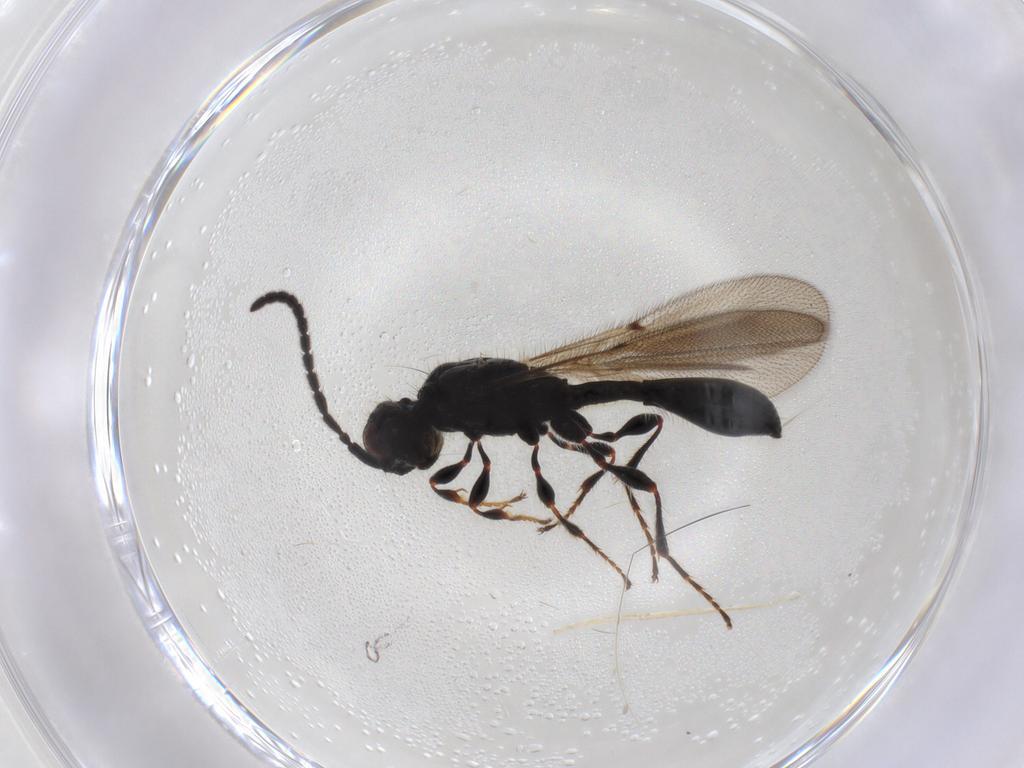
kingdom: Animalia
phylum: Arthropoda
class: Insecta
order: Hymenoptera
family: Diapriidae
